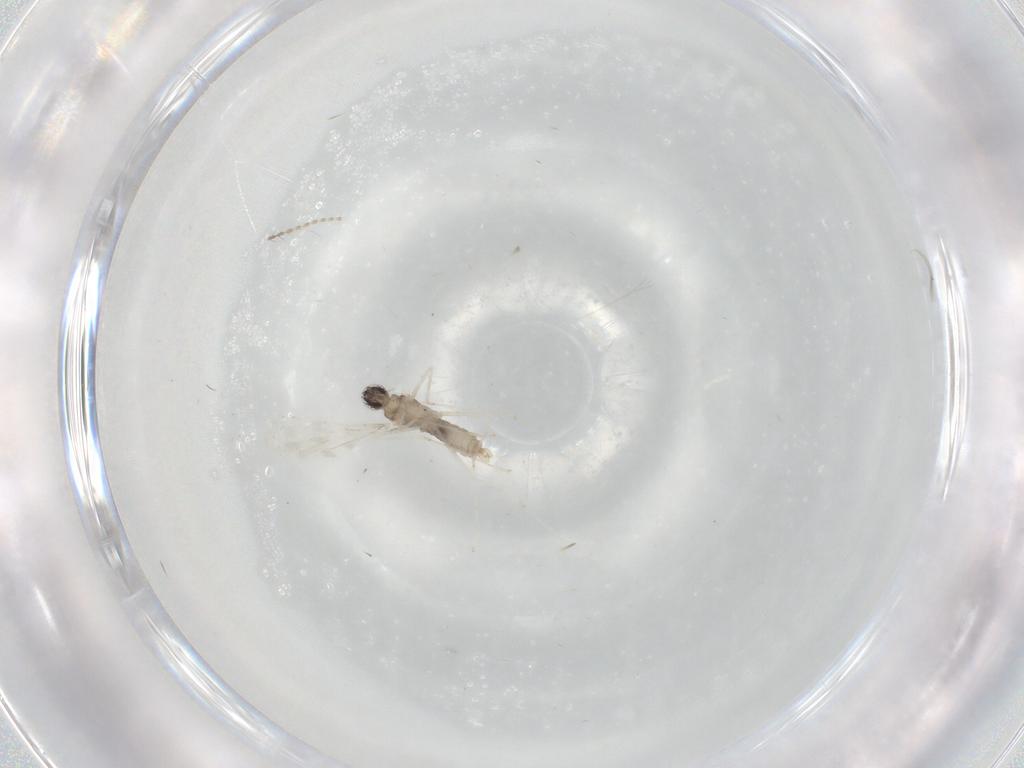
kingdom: Animalia
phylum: Arthropoda
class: Insecta
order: Diptera
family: Cecidomyiidae
